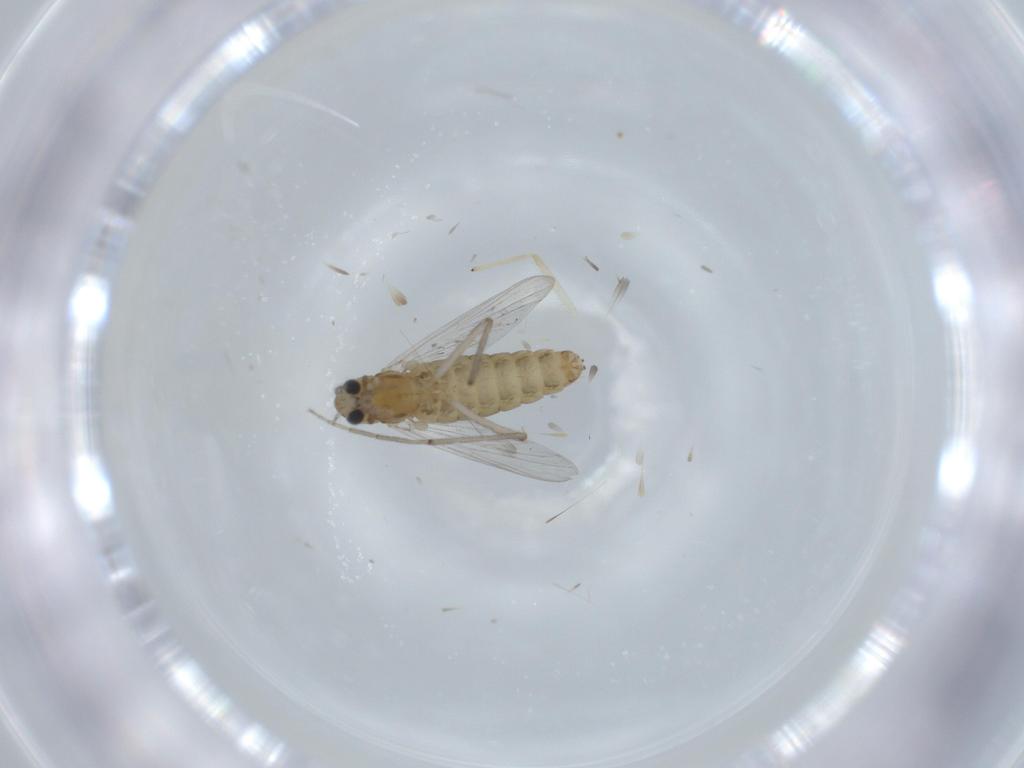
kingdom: Animalia
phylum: Arthropoda
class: Insecta
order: Diptera
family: Chironomidae
